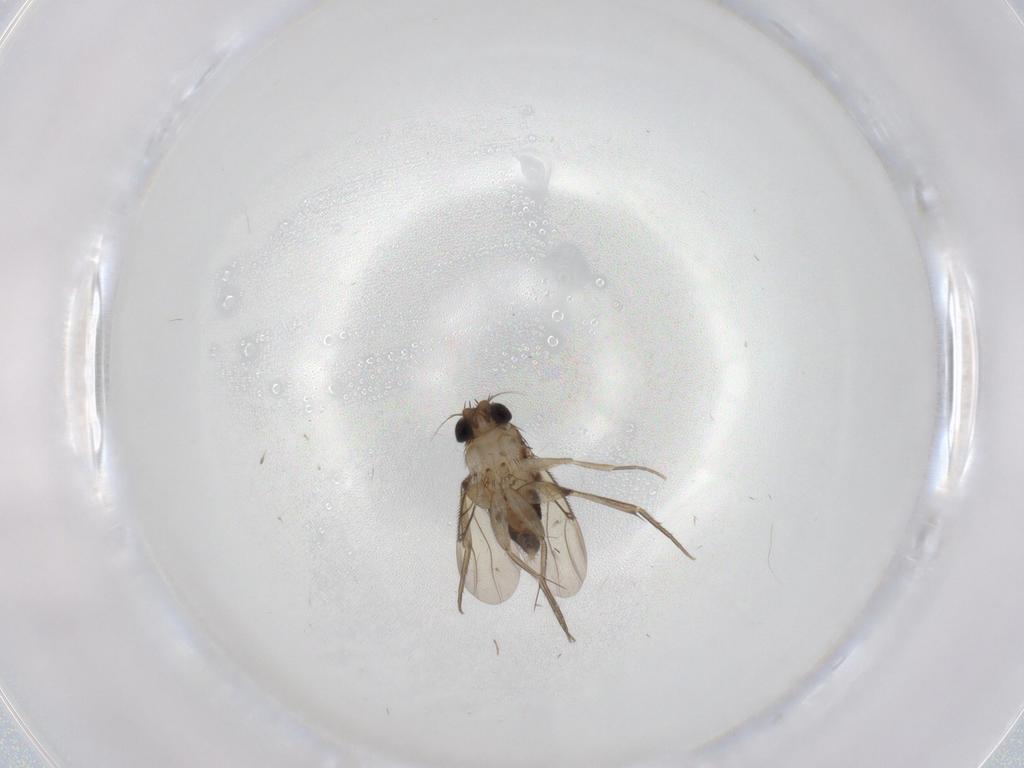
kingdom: Animalia
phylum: Arthropoda
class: Insecta
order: Diptera
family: Phoridae
